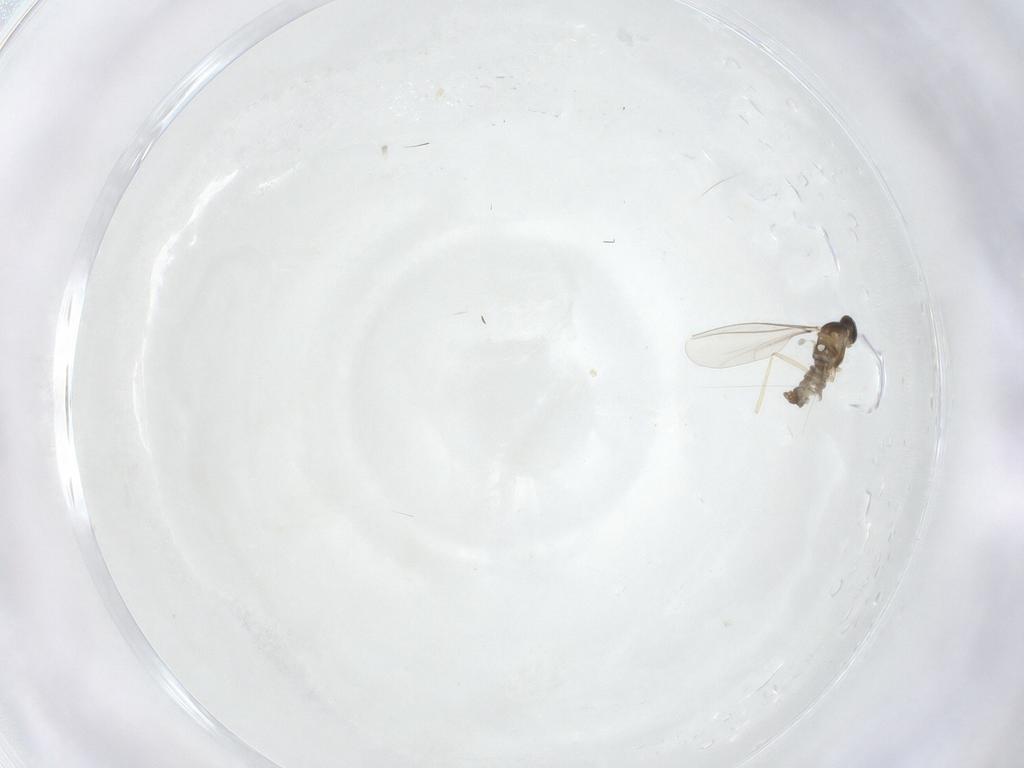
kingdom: Animalia
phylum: Arthropoda
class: Insecta
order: Diptera
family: Cecidomyiidae
